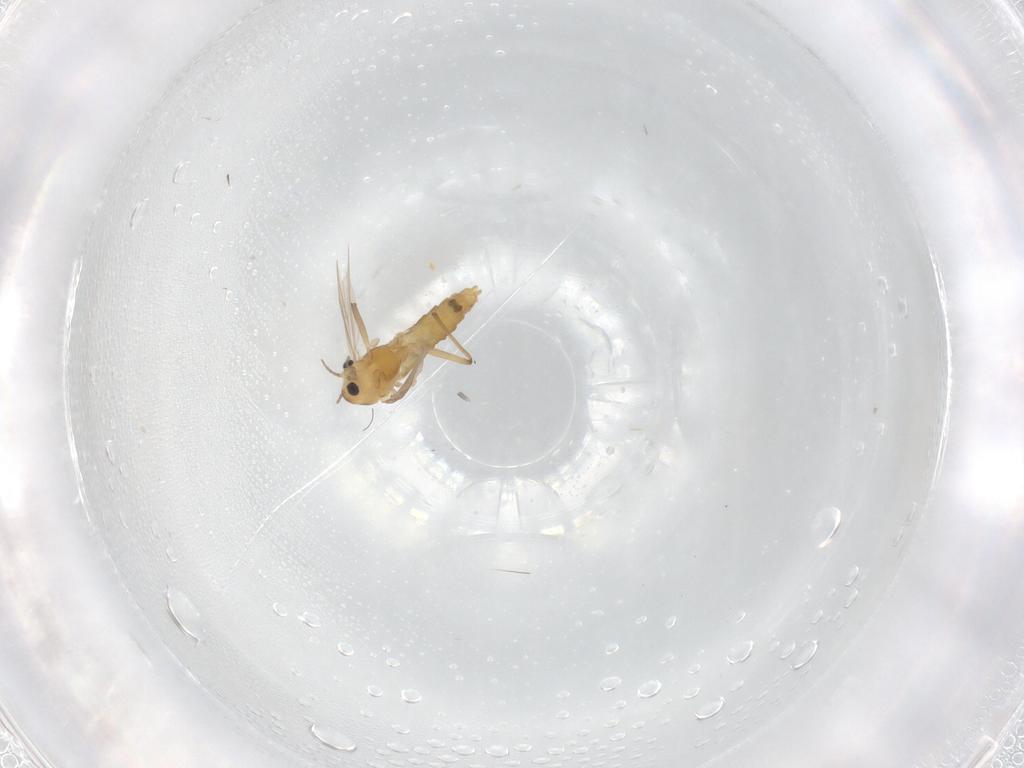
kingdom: Animalia
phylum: Arthropoda
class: Insecta
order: Diptera
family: Chironomidae
